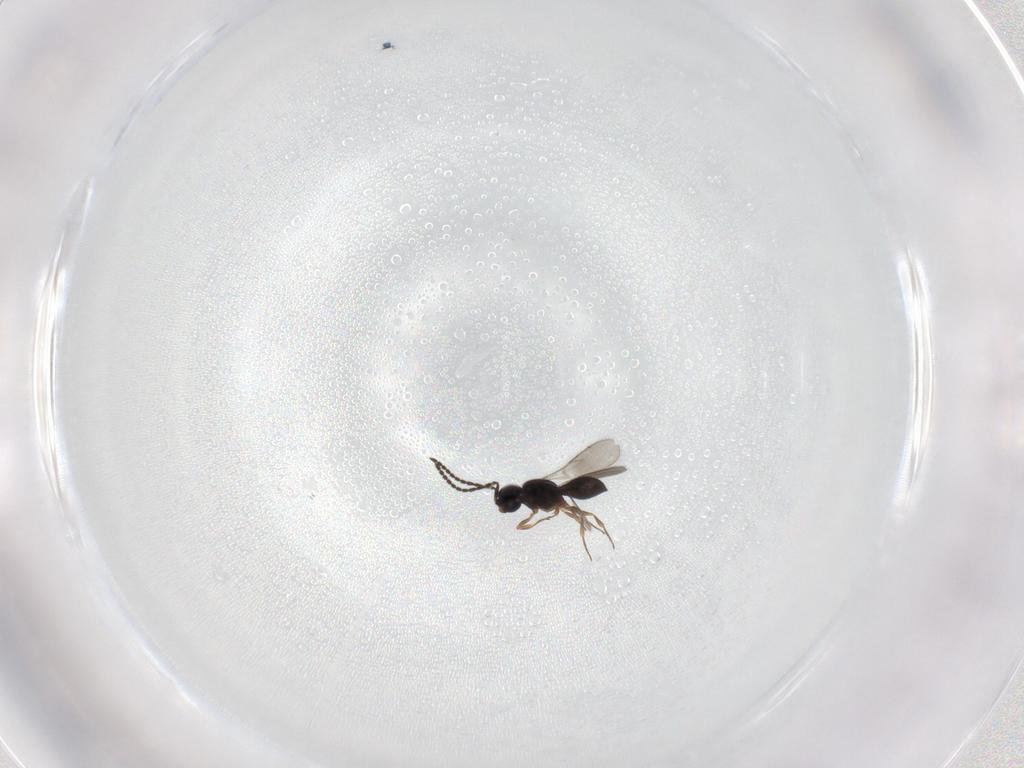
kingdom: Animalia
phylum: Arthropoda
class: Insecta
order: Hymenoptera
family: Scelionidae
